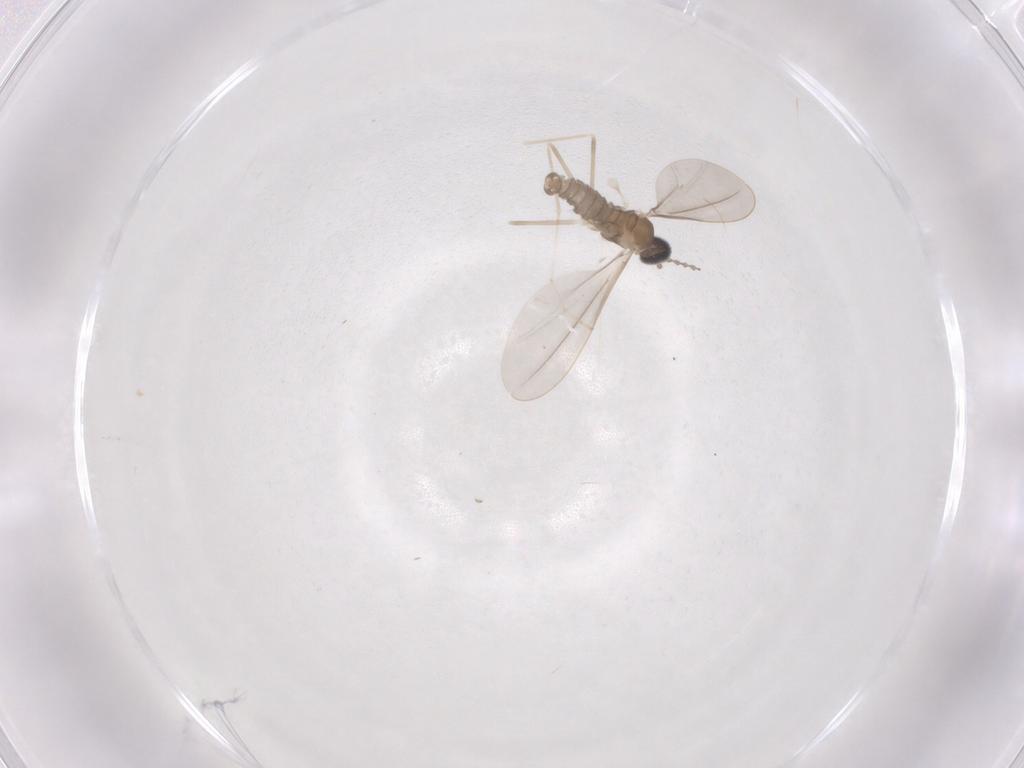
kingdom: Animalia
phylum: Arthropoda
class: Insecta
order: Diptera
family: Cecidomyiidae
